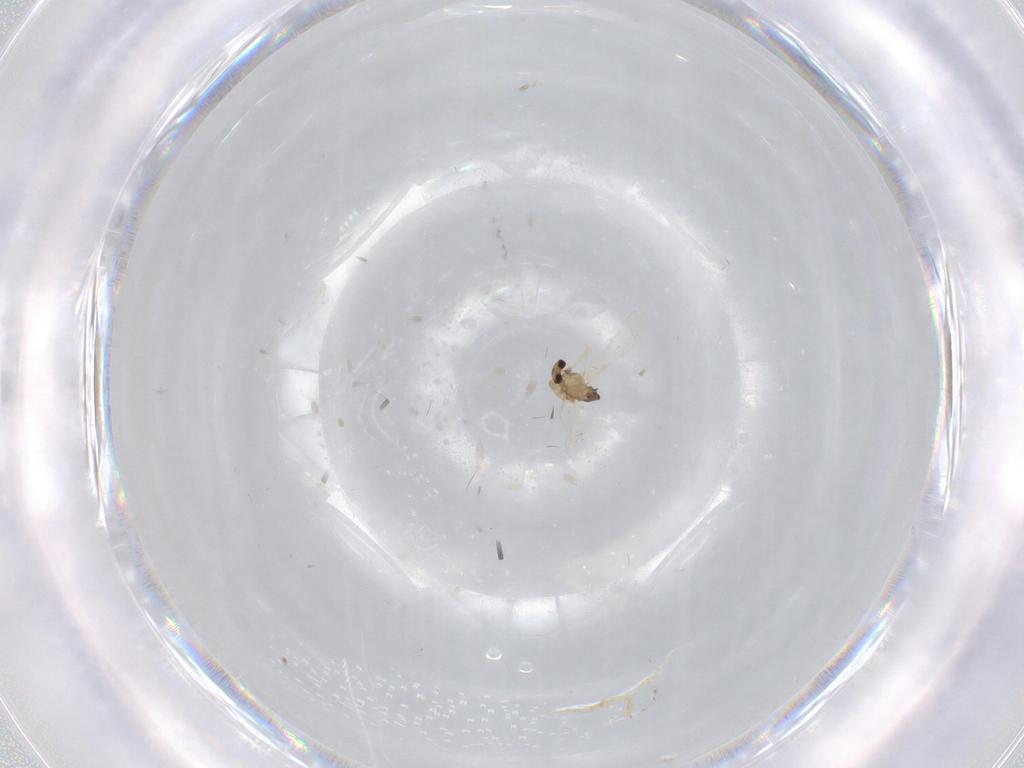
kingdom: Animalia
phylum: Arthropoda
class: Insecta
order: Diptera
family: Chironomidae
